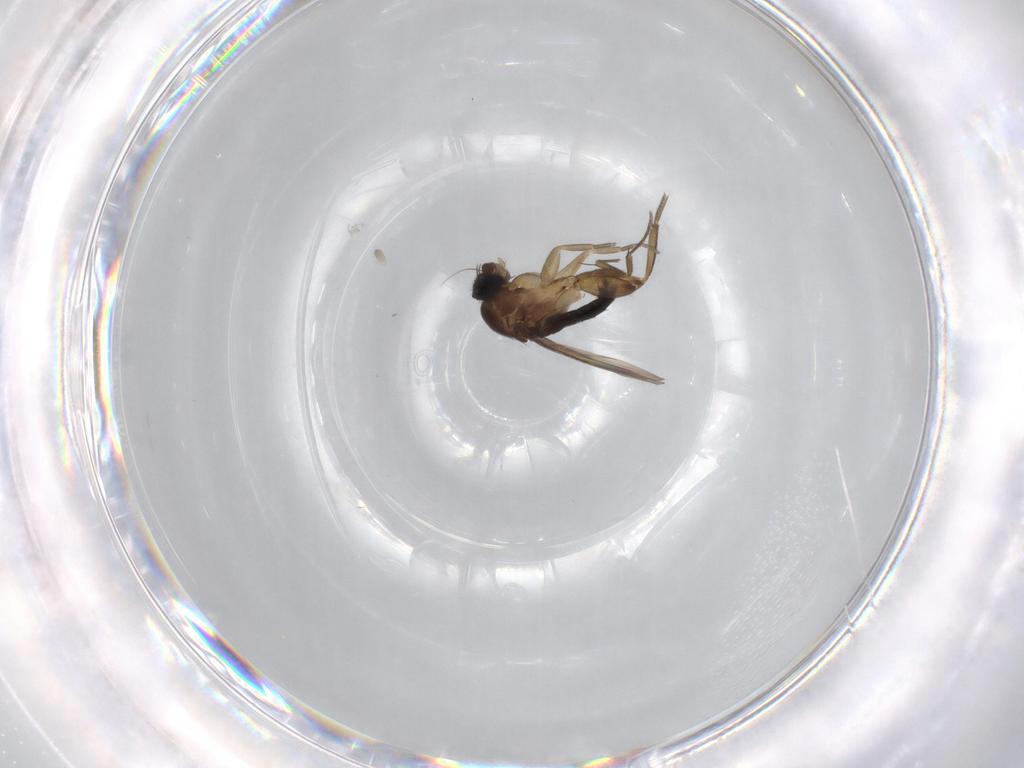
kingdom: Animalia
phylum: Arthropoda
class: Insecta
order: Diptera
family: Phoridae
